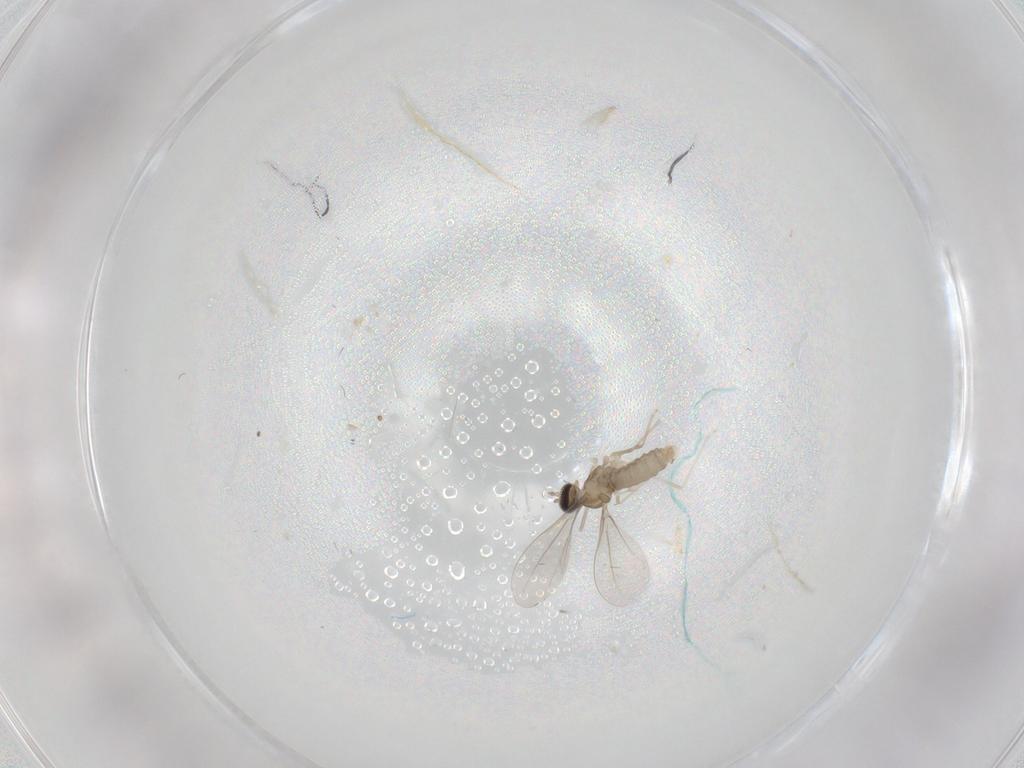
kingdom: Animalia
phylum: Arthropoda
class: Insecta
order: Diptera
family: Cecidomyiidae
